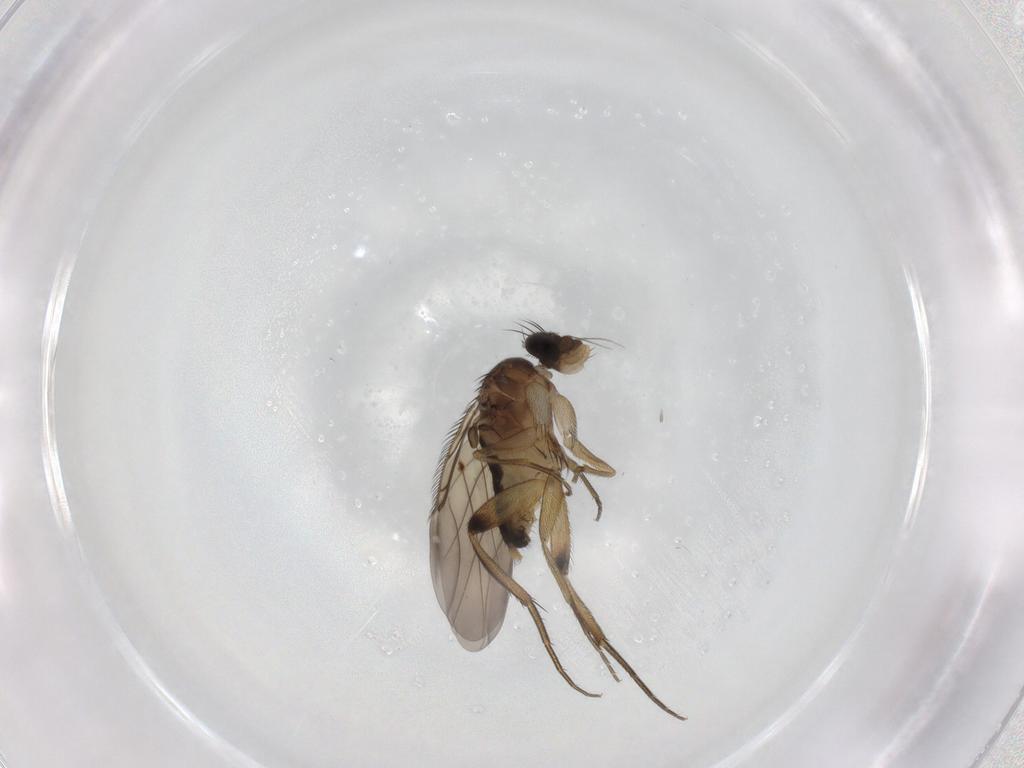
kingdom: Animalia
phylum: Arthropoda
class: Insecta
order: Diptera
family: Phoridae
